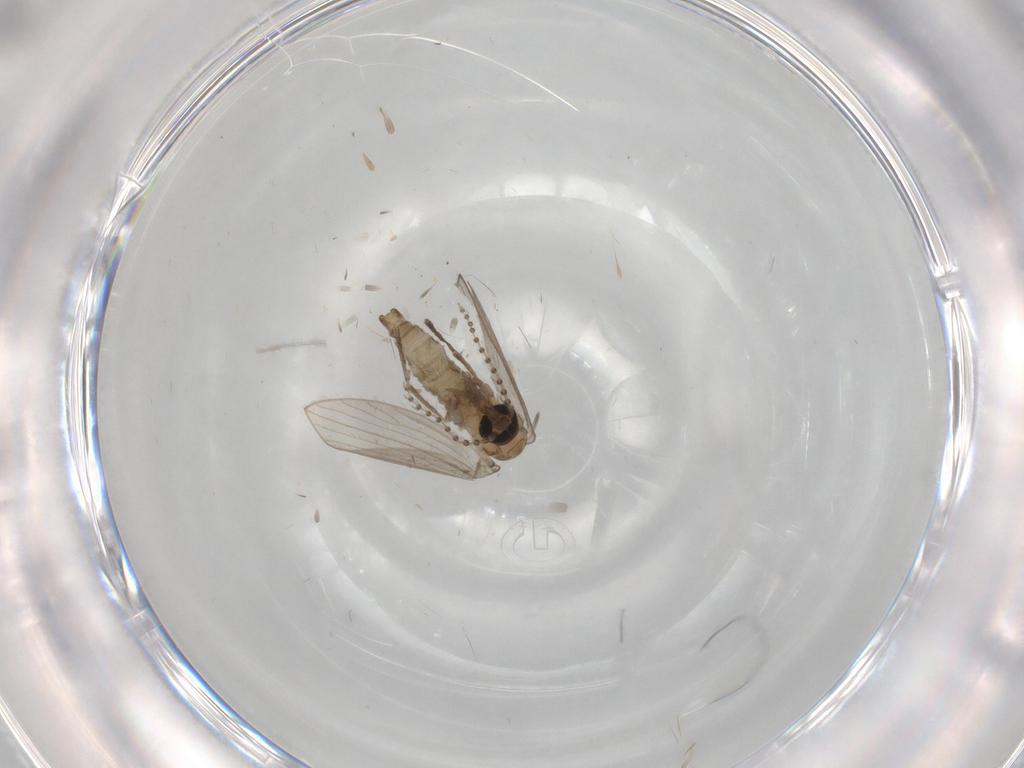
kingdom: Animalia
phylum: Arthropoda
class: Insecta
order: Diptera
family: Psychodidae
